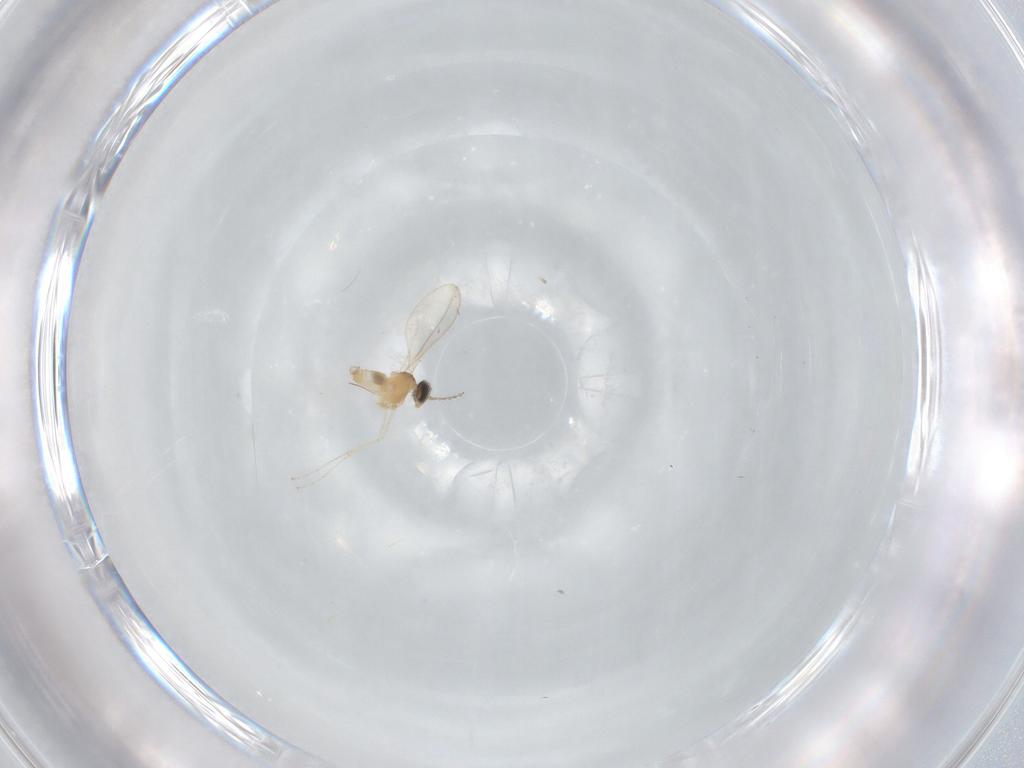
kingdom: Animalia
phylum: Arthropoda
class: Insecta
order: Diptera
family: Cecidomyiidae
